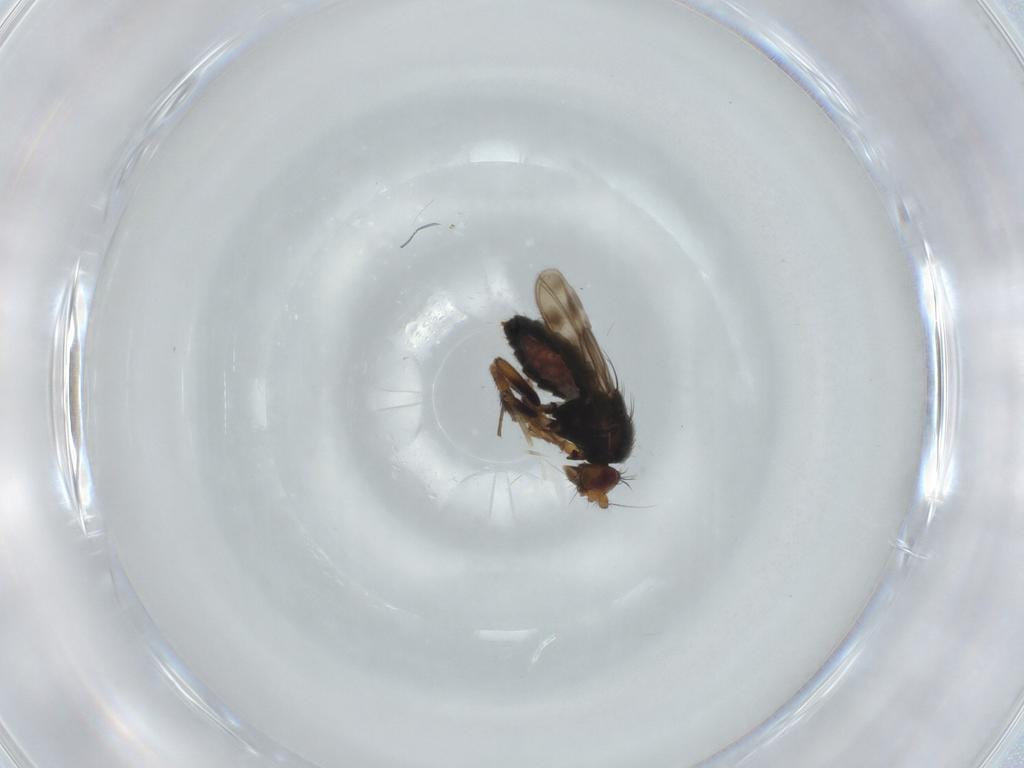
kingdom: Animalia
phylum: Arthropoda
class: Insecta
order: Diptera
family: Sphaeroceridae
